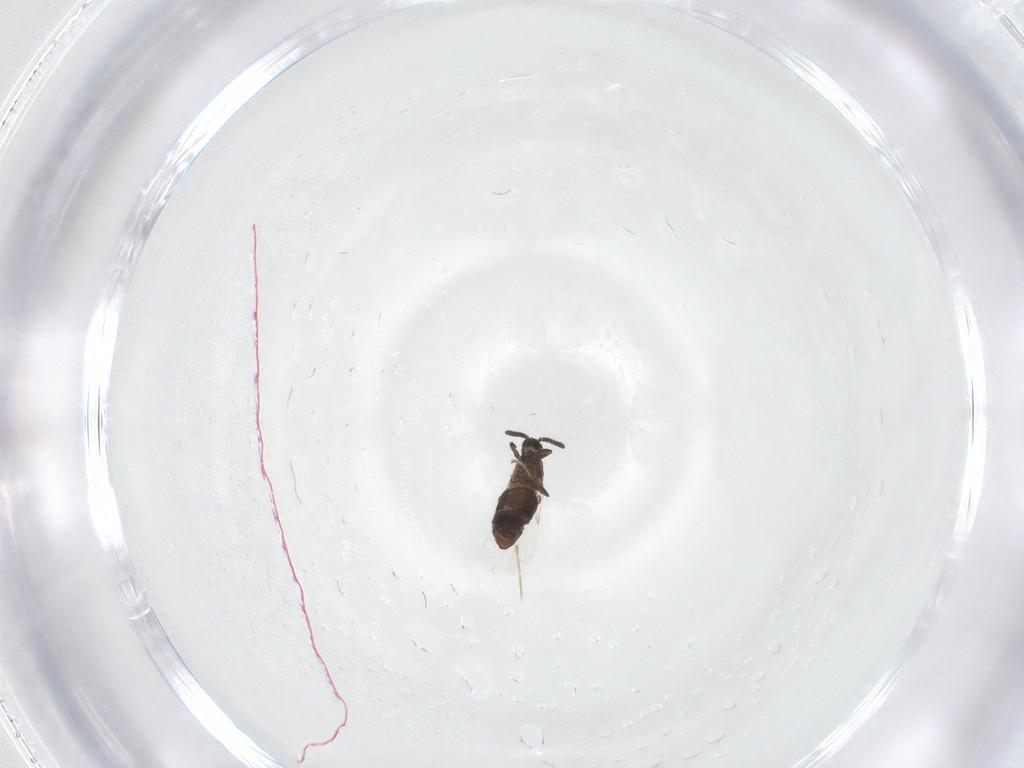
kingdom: Animalia
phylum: Arthropoda
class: Insecta
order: Diptera
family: Scatopsidae
